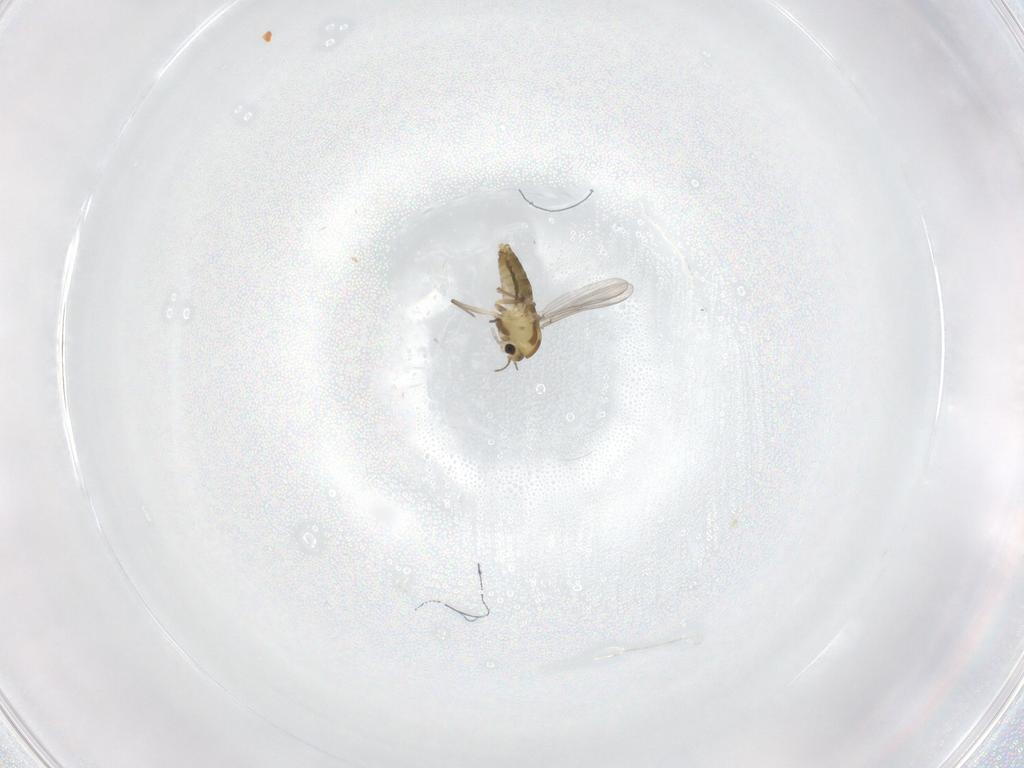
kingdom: Animalia
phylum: Arthropoda
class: Insecta
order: Diptera
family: Chironomidae
